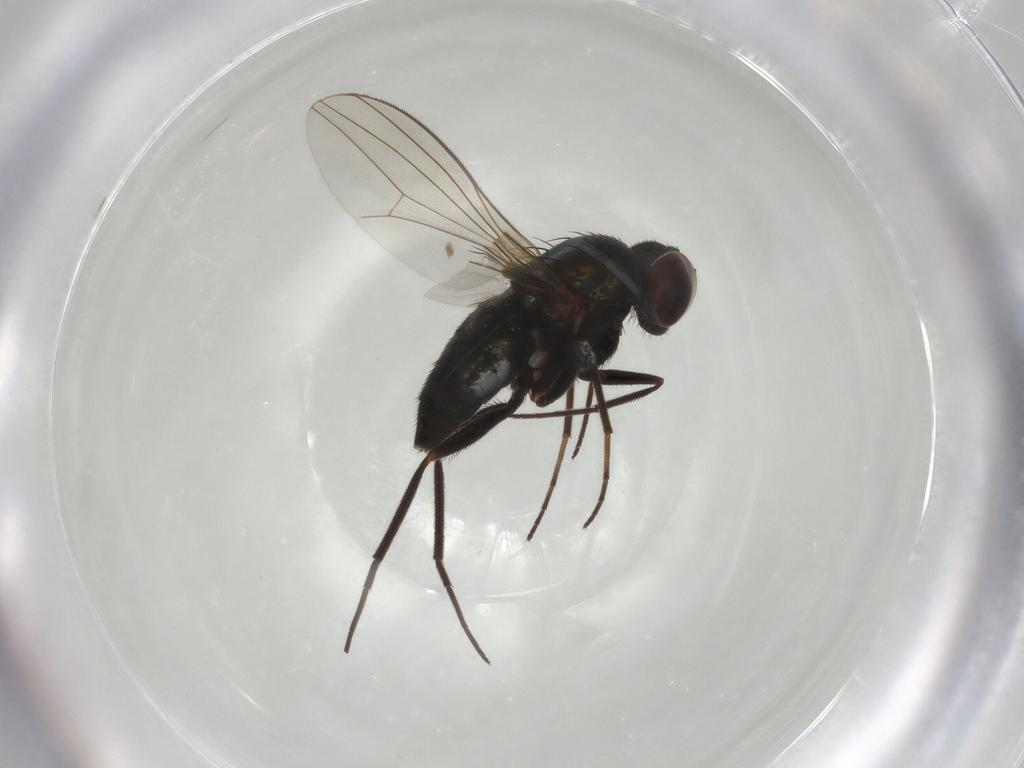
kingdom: Animalia
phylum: Arthropoda
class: Insecta
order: Diptera
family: Dolichopodidae
